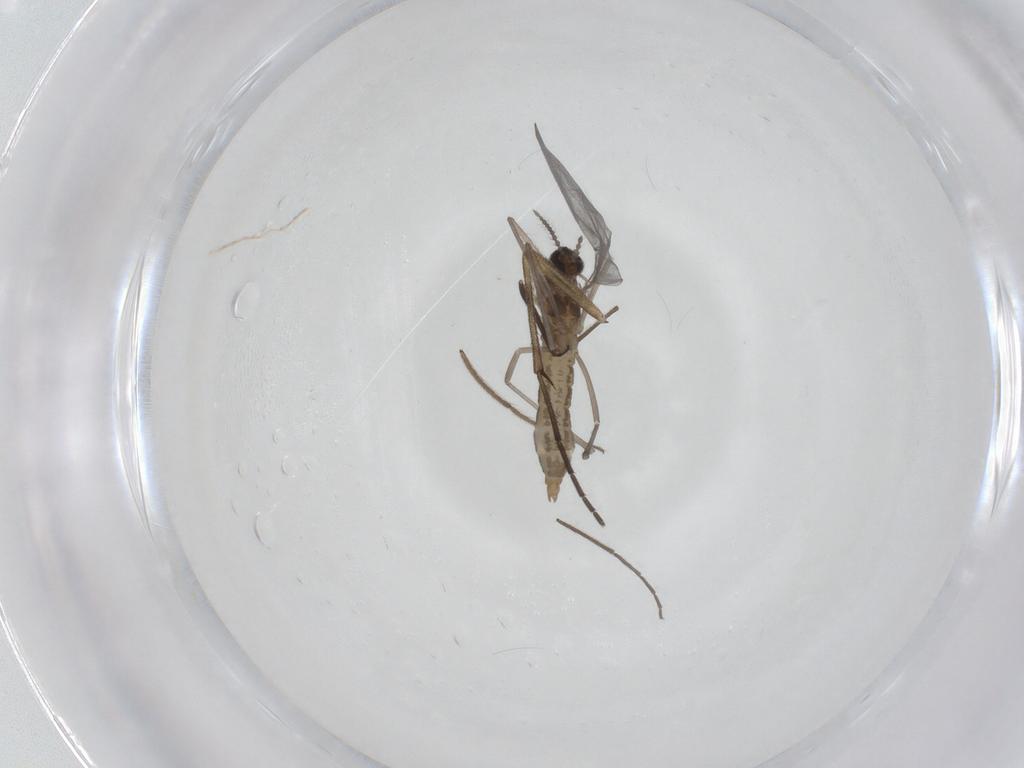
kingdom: Animalia
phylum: Arthropoda
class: Insecta
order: Diptera
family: Cecidomyiidae
